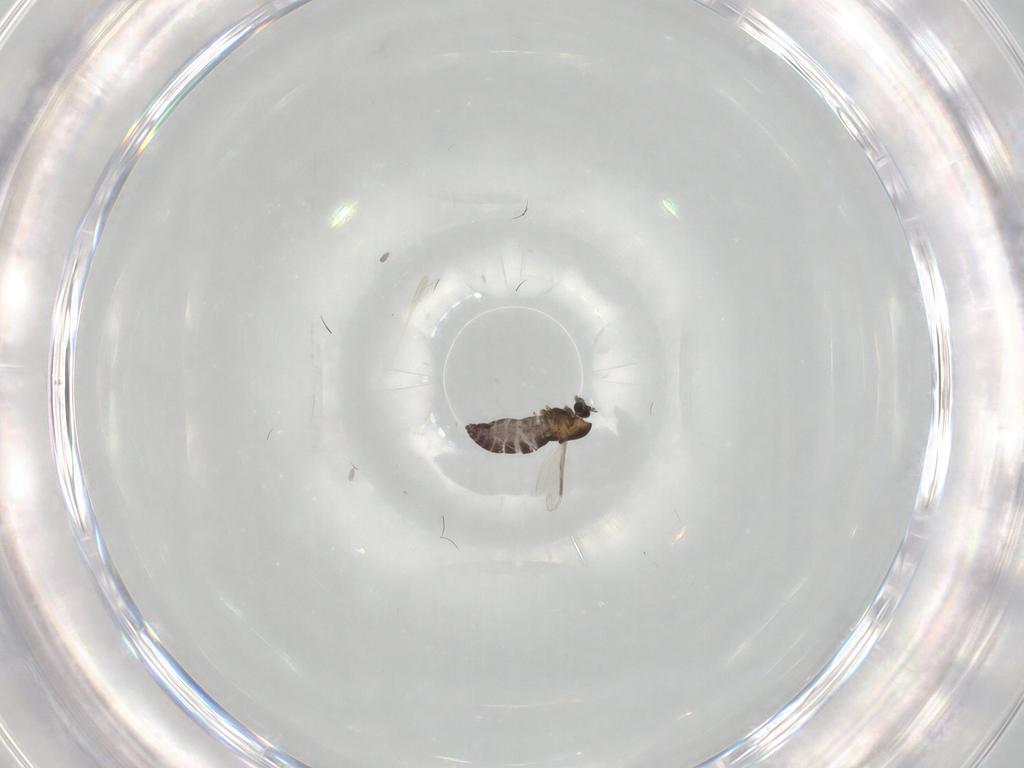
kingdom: Animalia
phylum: Arthropoda
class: Insecta
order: Diptera
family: Chironomidae
